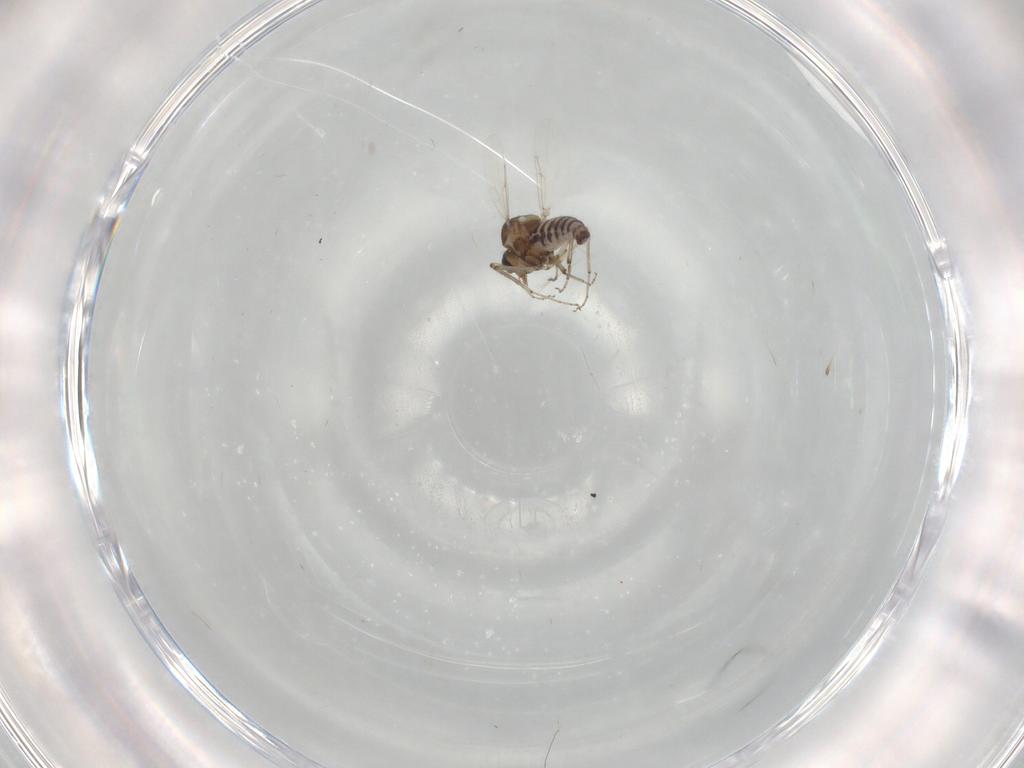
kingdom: Animalia
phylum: Arthropoda
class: Insecta
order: Diptera
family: Ceratopogonidae
